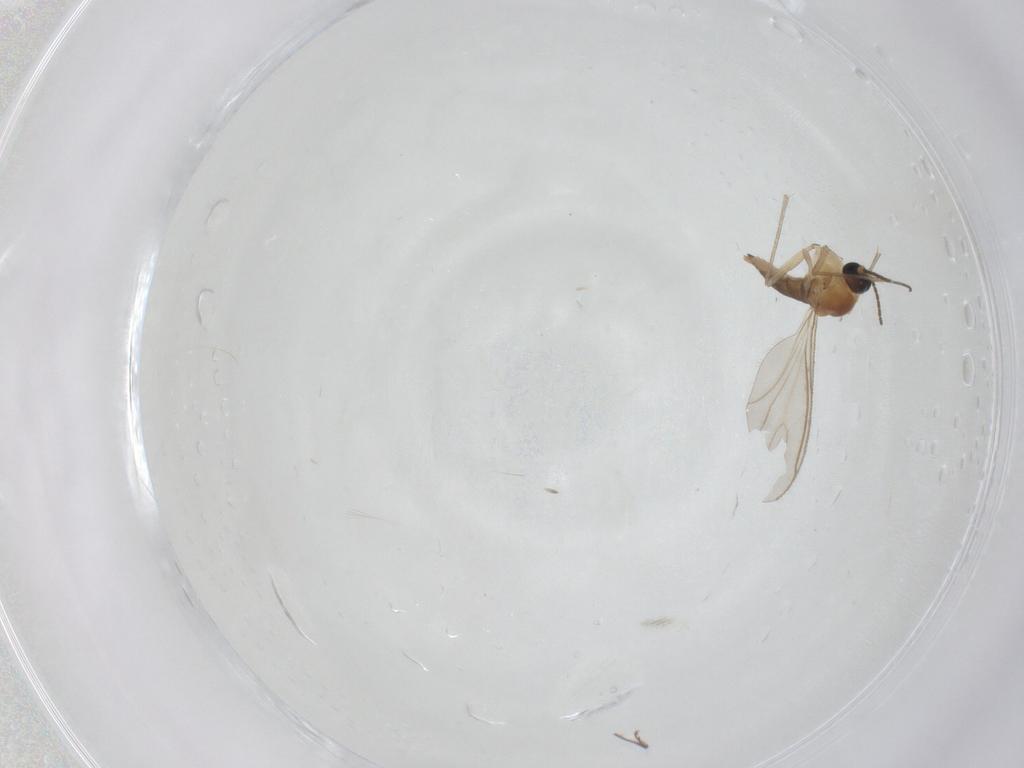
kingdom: Animalia
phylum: Arthropoda
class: Insecta
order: Diptera
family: Sciaridae
